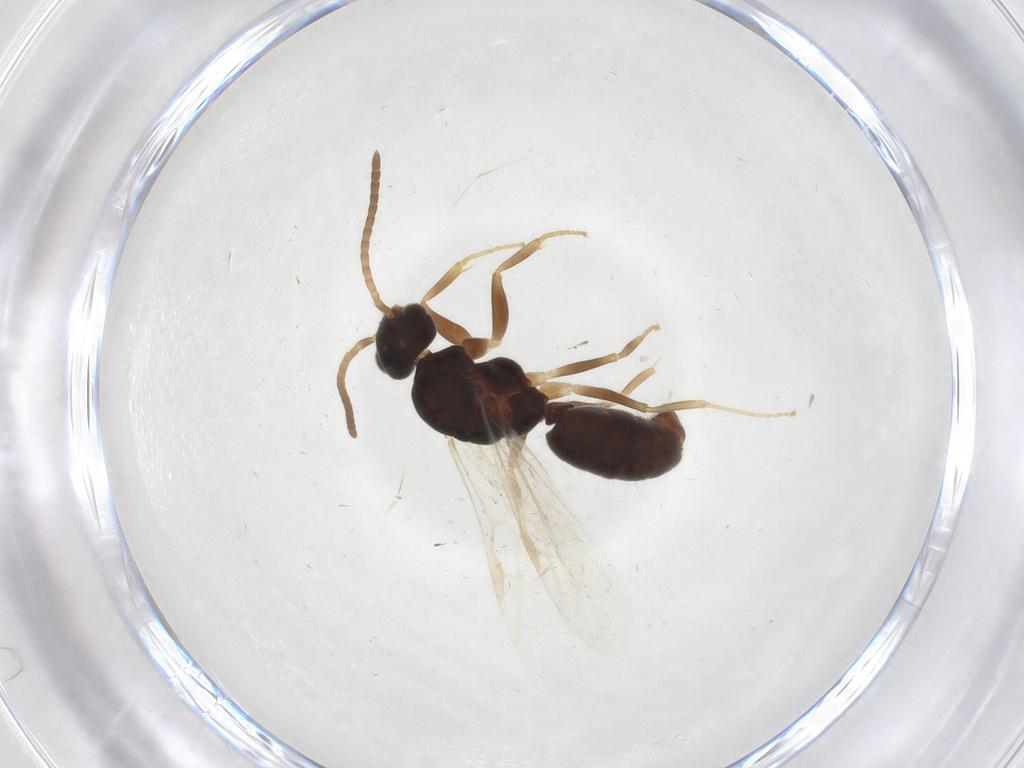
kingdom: Animalia
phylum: Arthropoda
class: Insecta
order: Hymenoptera
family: Formicidae
